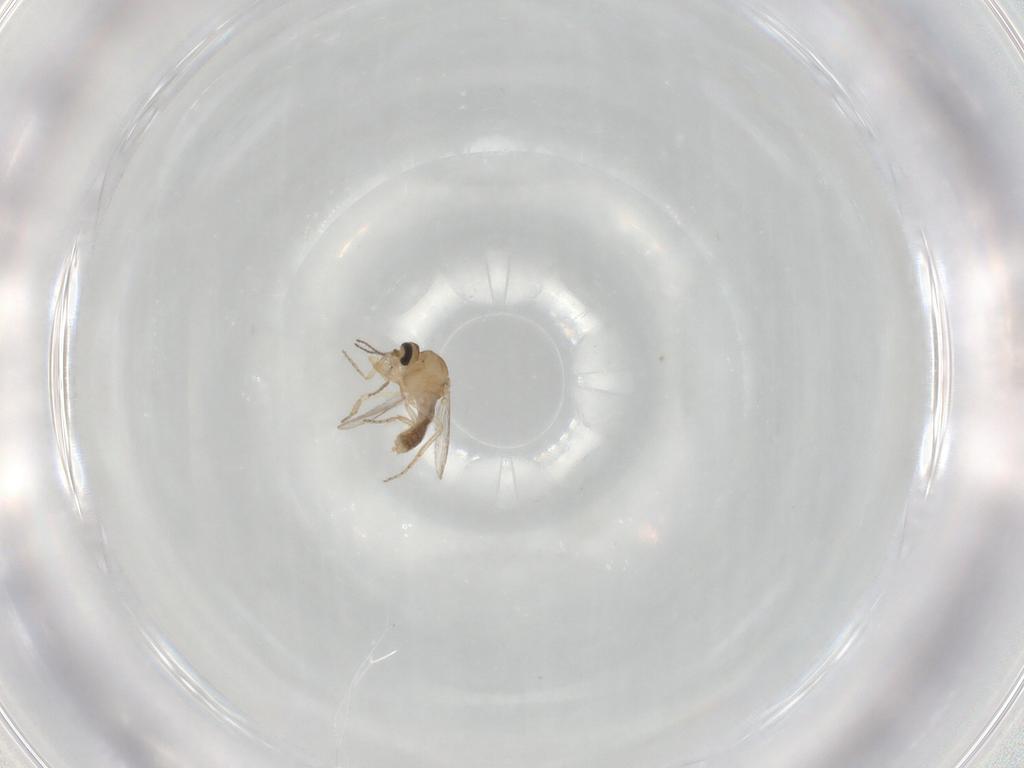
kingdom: Animalia
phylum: Arthropoda
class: Insecta
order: Diptera
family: Ceratopogonidae
